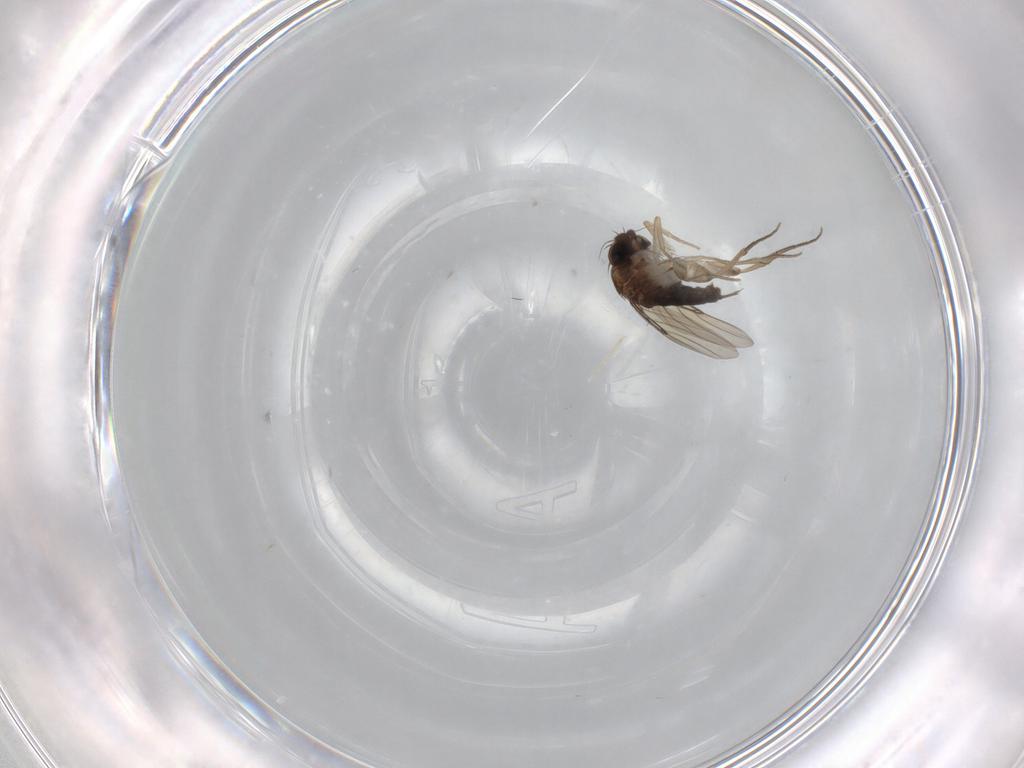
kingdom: Animalia
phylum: Arthropoda
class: Insecta
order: Diptera
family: Phoridae
